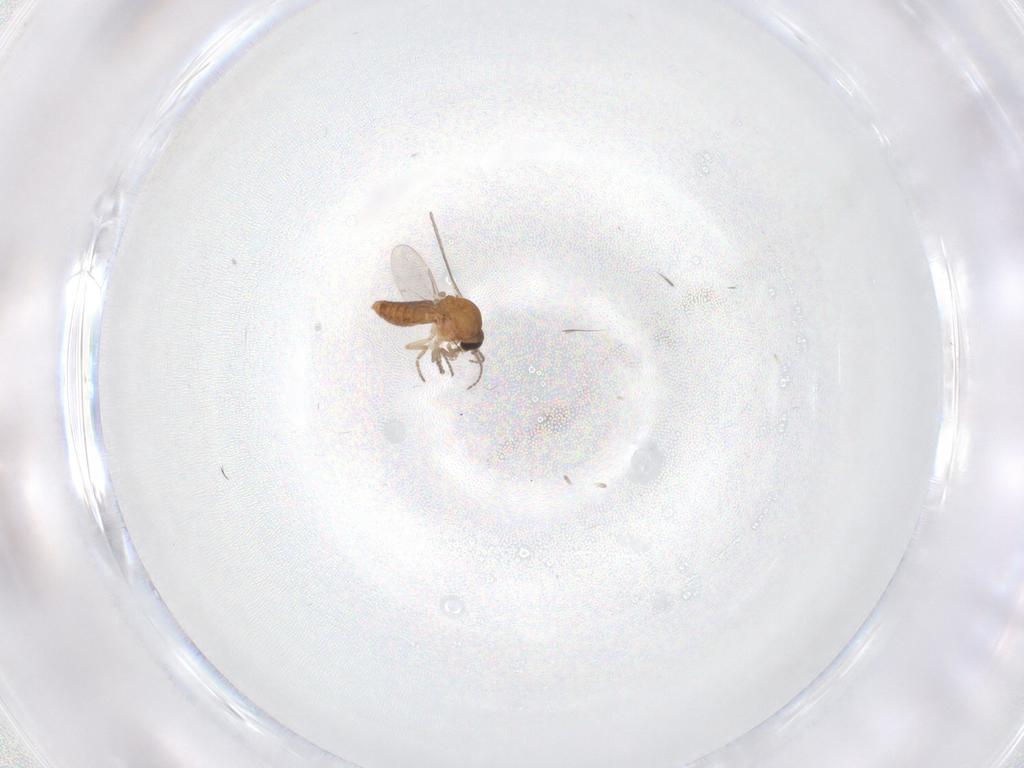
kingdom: Animalia
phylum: Arthropoda
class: Insecta
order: Diptera
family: Ceratopogonidae
